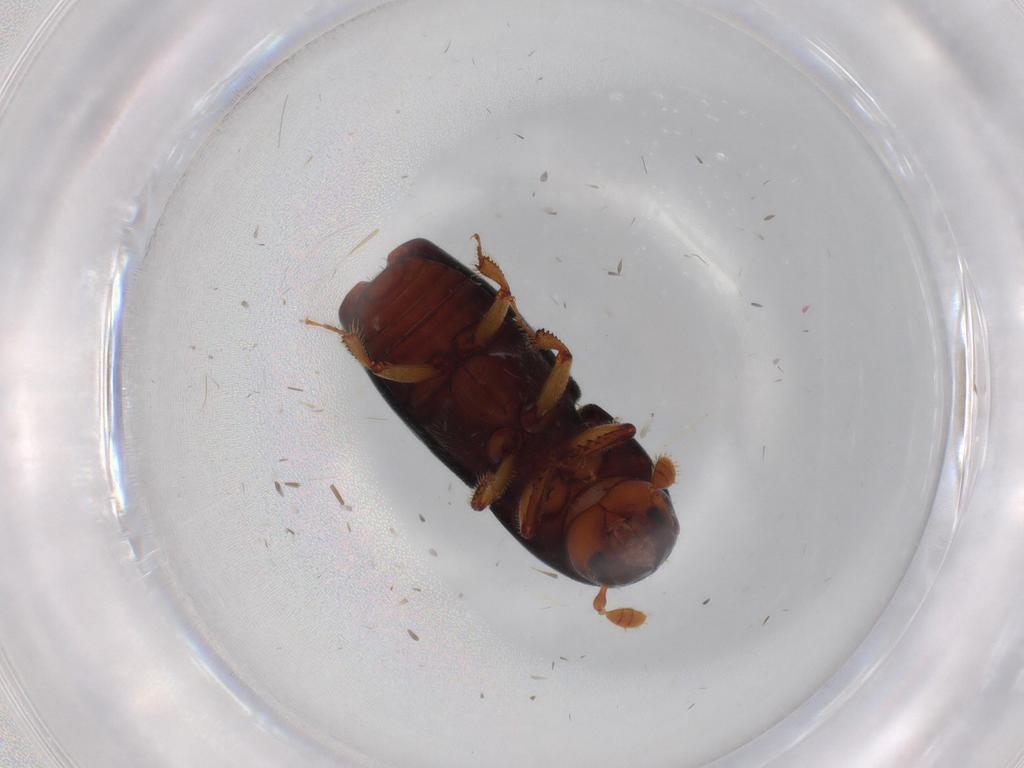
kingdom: Animalia
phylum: Arthropoda
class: Insecta
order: Coleoptera
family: Curculionidae
